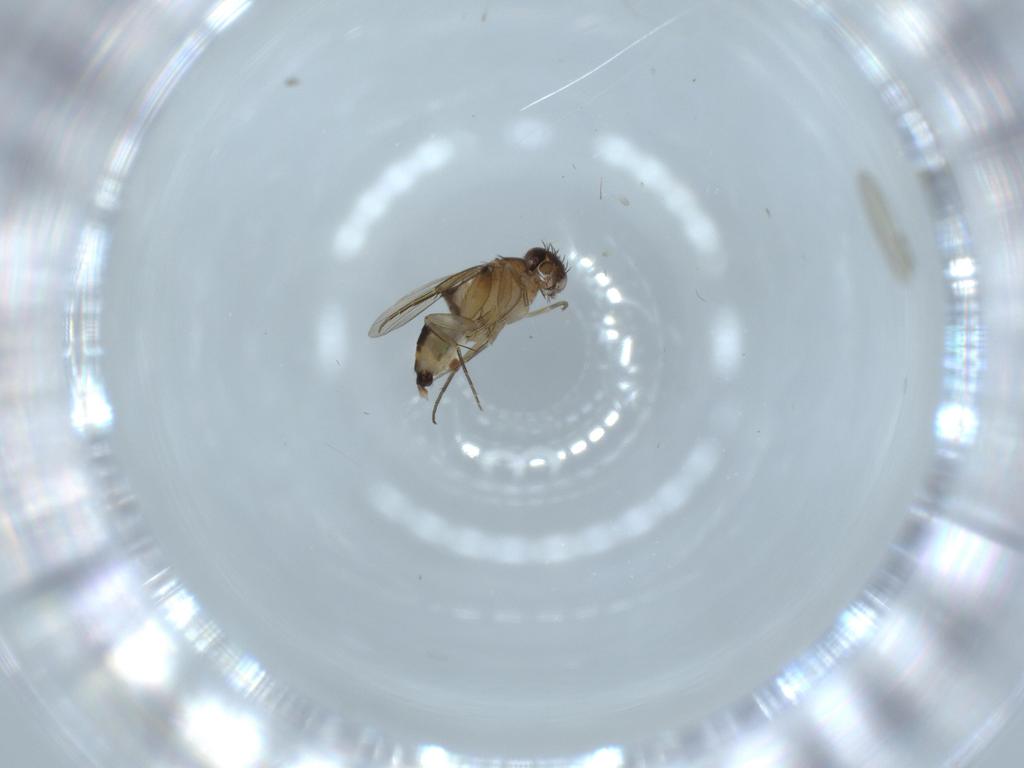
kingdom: Animalia
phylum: Arthropoda
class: Insecta
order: Diptera
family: Phoridae
